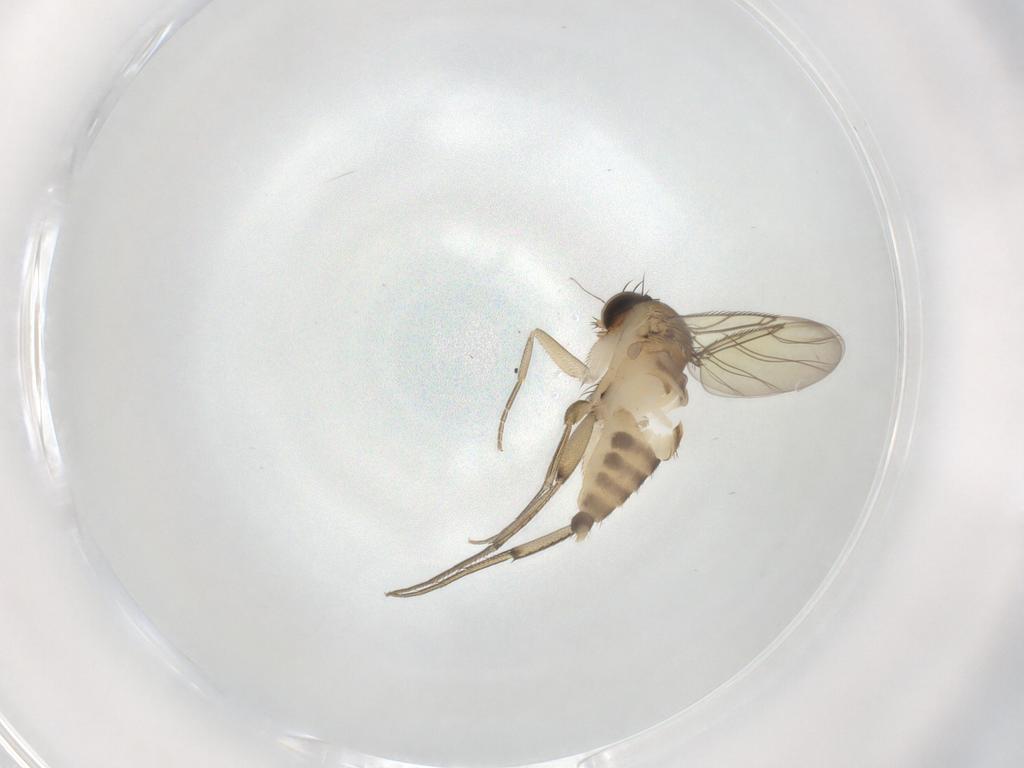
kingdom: Animalia
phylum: Arthropoda
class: Insecta
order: Diptera
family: Phoridae
